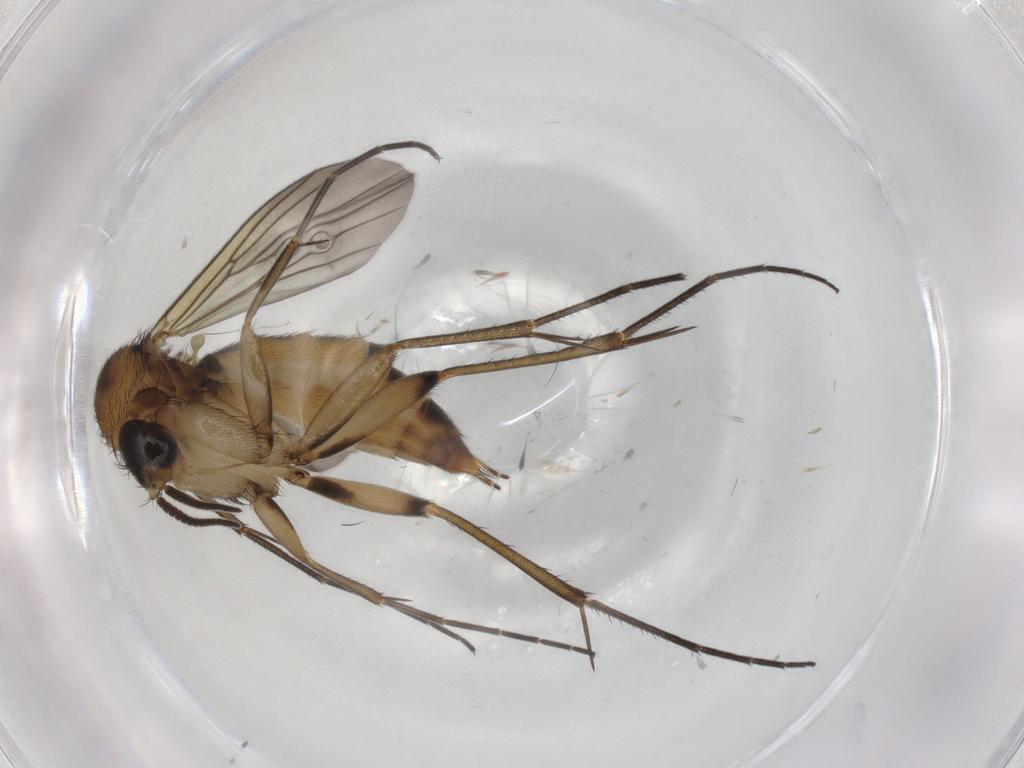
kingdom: Animalia
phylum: Arthropoda
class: Insecta
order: Diptera
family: Mycetophilidae
